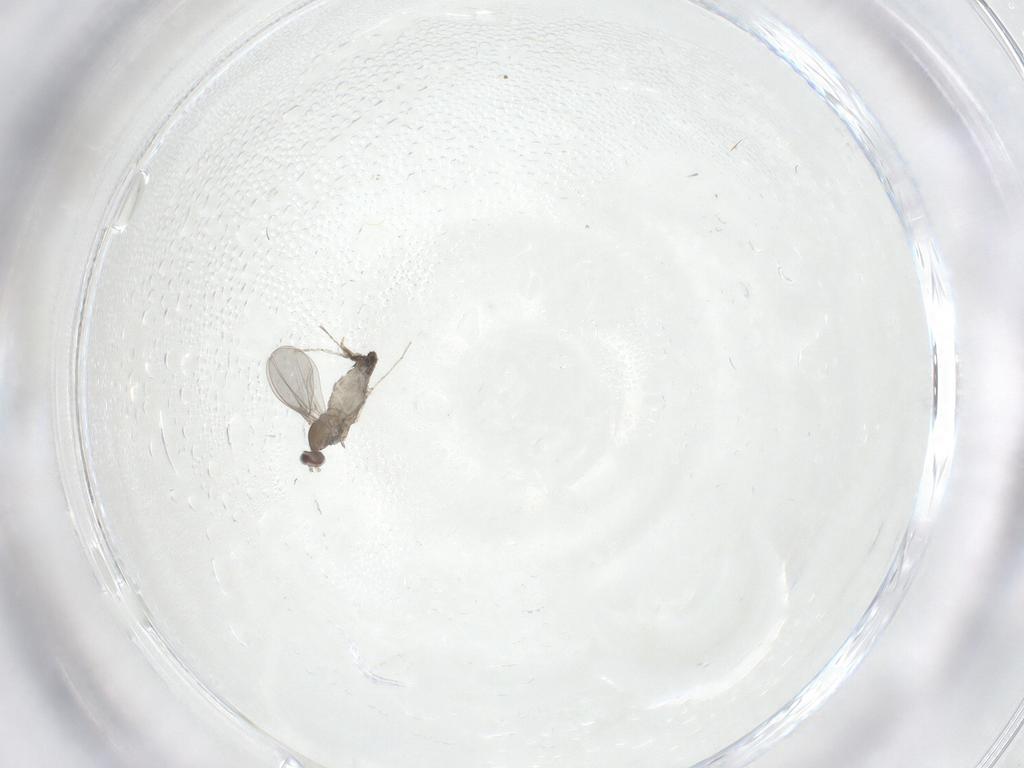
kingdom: Animalia
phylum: Arthropoda
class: Insecta
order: Diptera
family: Cecidomyiidae
